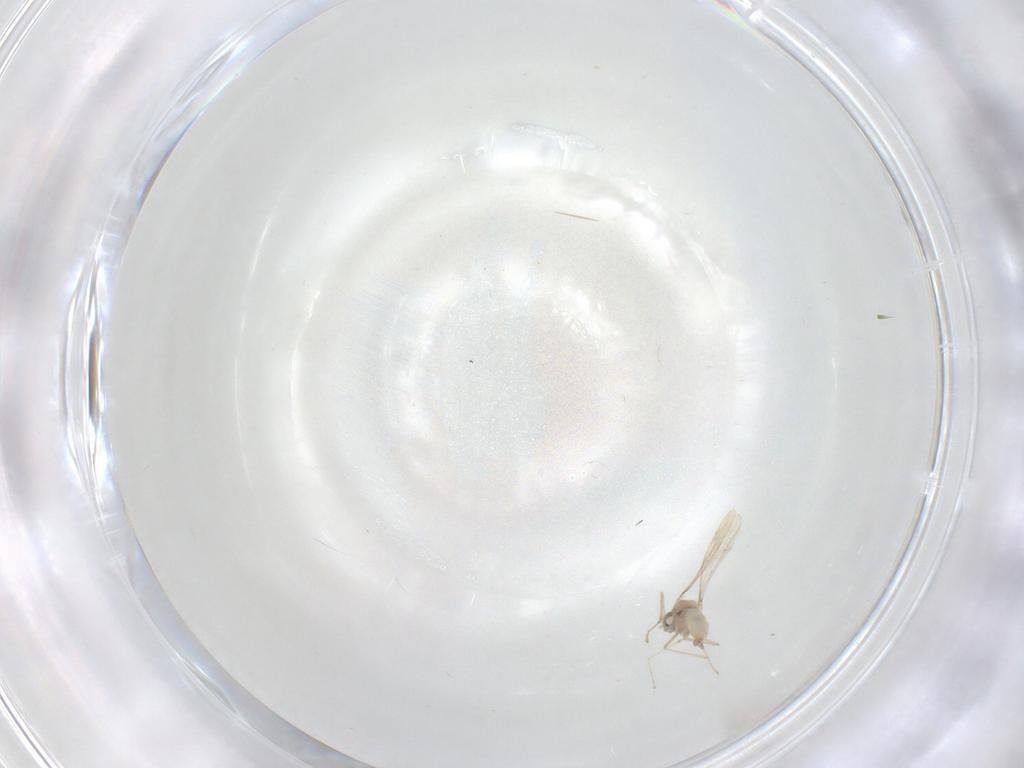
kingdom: Animalia
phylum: Arthropoda
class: Insecta
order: Diptera
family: Cecidomyiidae
